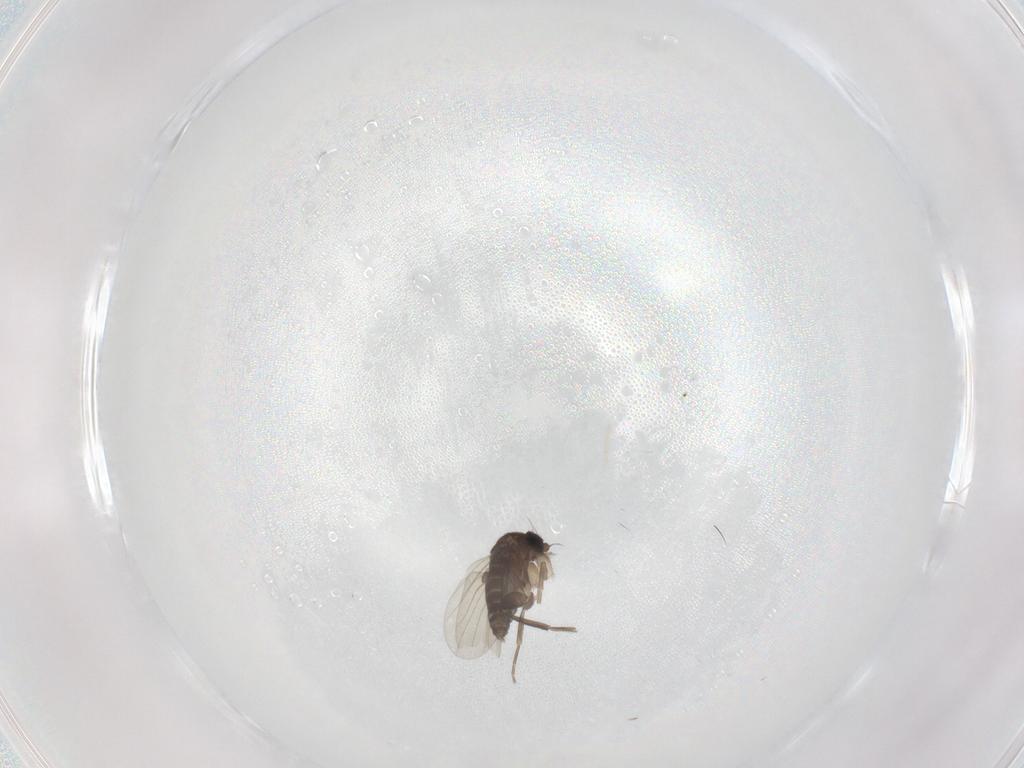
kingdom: Animalia
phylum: Arthropoda
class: Insecta
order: Diptera
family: Phoridae
